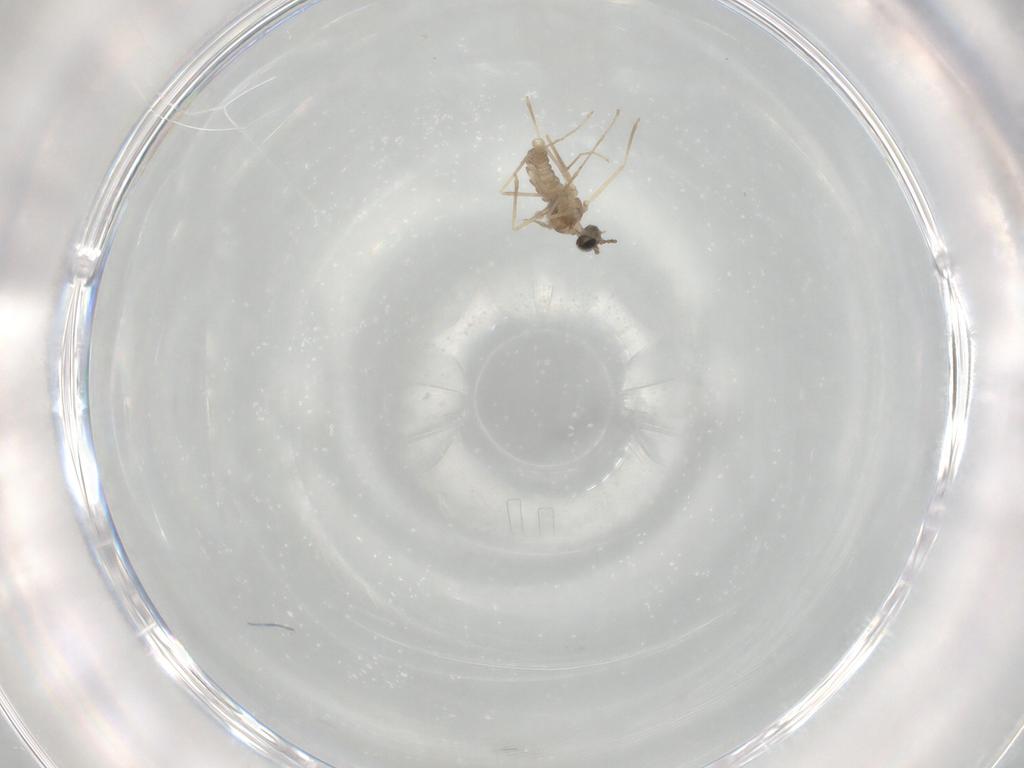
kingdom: Animalia
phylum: Arthropoda
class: Insecta
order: Diptera
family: Cecidomyiidae
